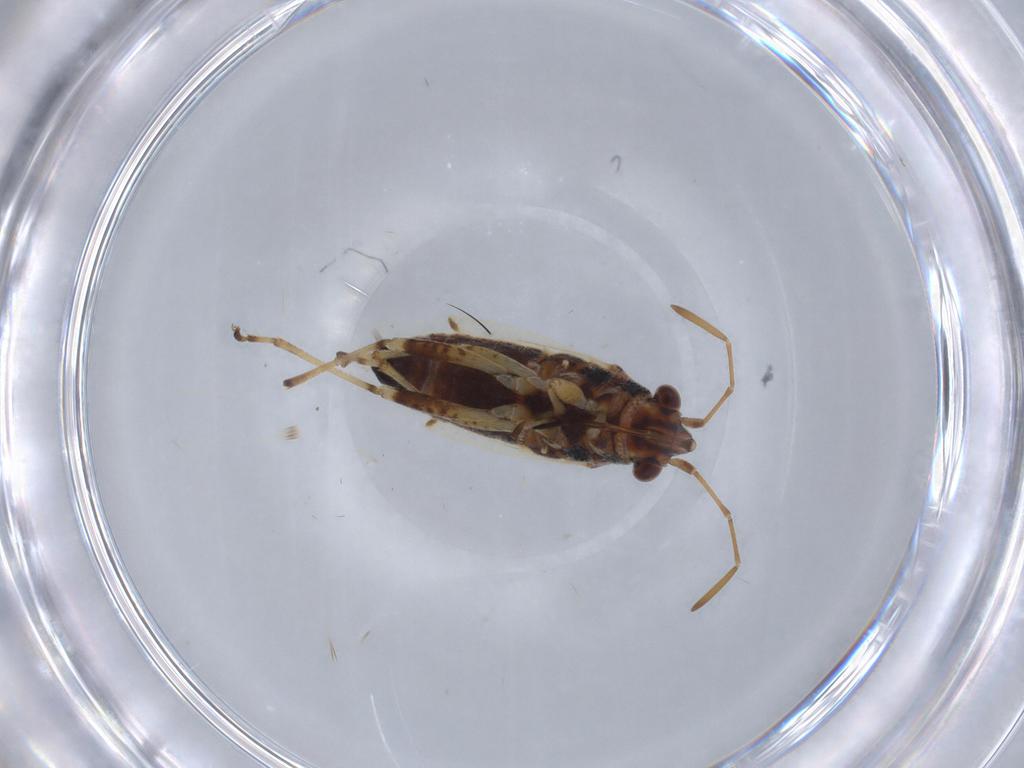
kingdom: Animalia
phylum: Arthropoda
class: Insecta
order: Hemiptera
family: Lygaeidae
